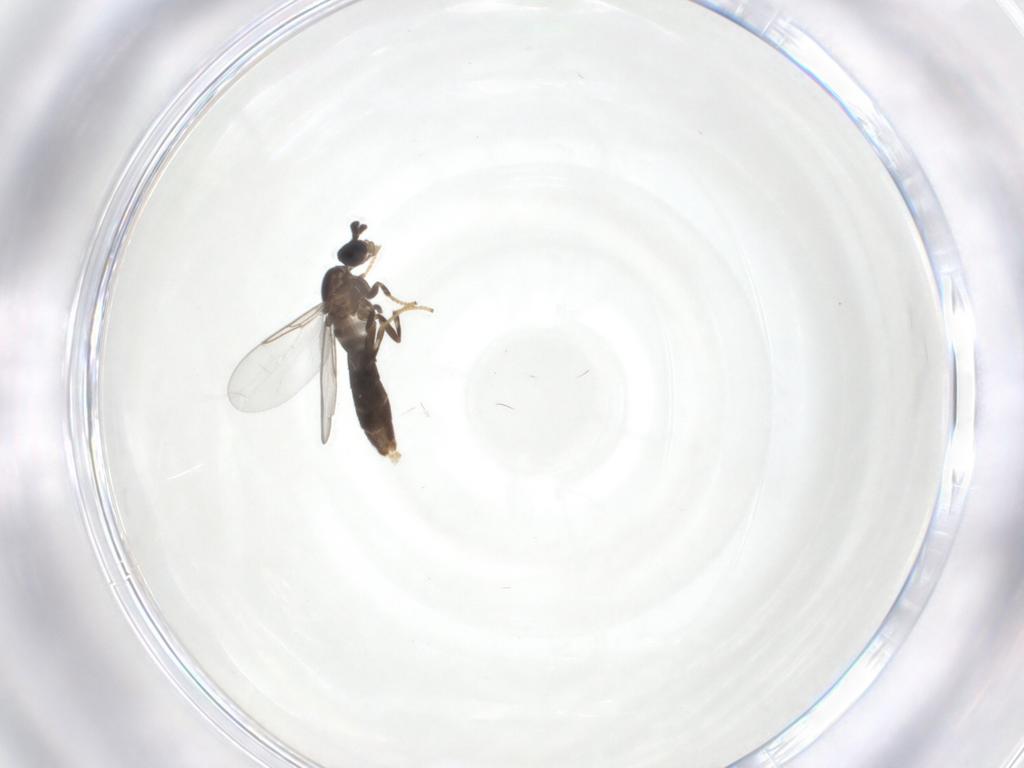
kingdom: Animalia
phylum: Arthropoda
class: Insecta
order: Diptera
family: Scatopsidae
